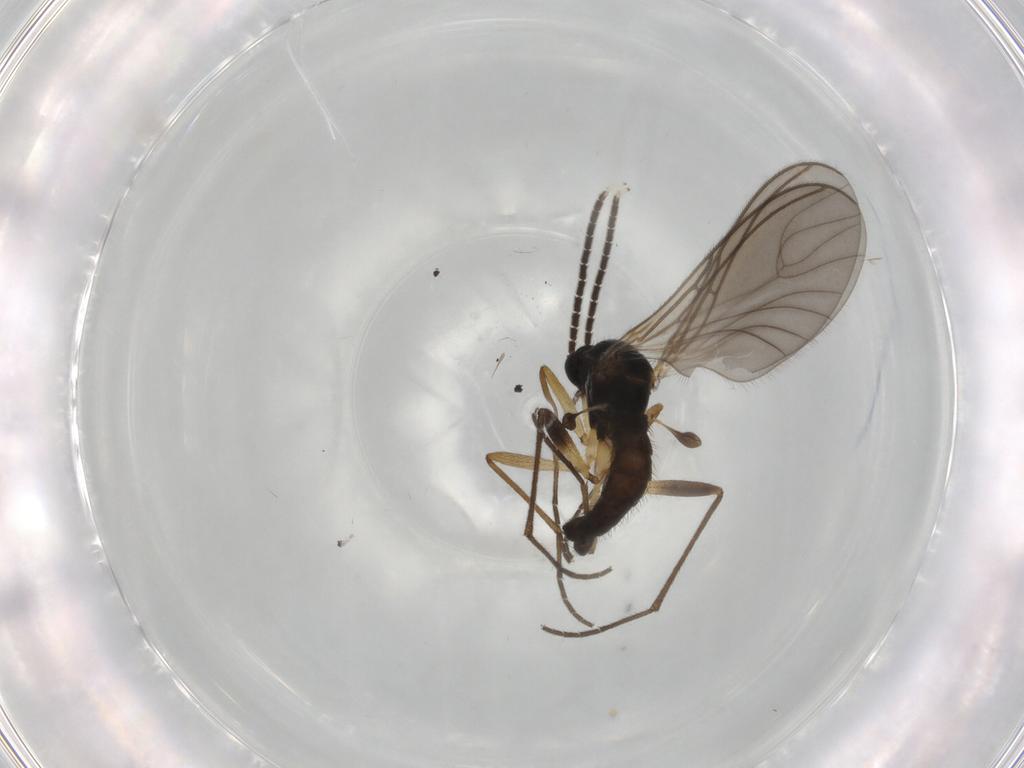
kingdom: Animalia
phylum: Arthropoda
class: Insecta
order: Diptera
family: Sciaridae
